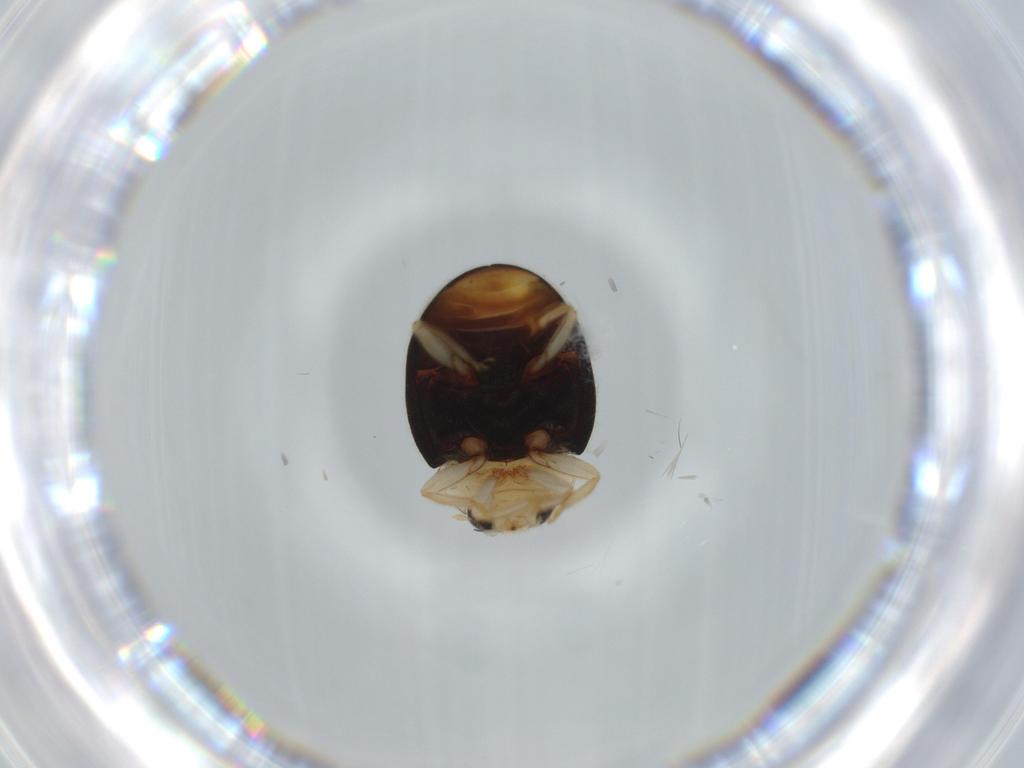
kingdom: Animalia
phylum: Arthropoda
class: Insecta
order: Coleoptera
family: Coccinellidae
